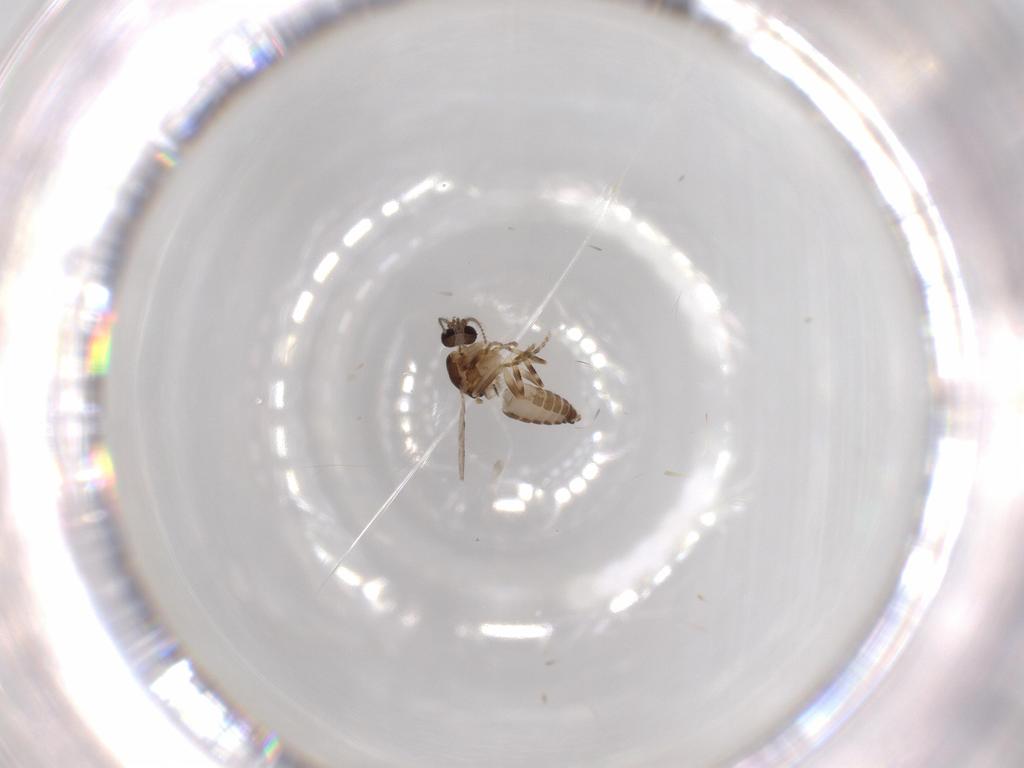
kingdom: Animalia
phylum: Arthropoda
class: Insecta
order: Diptera
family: Ceratopogonidae
